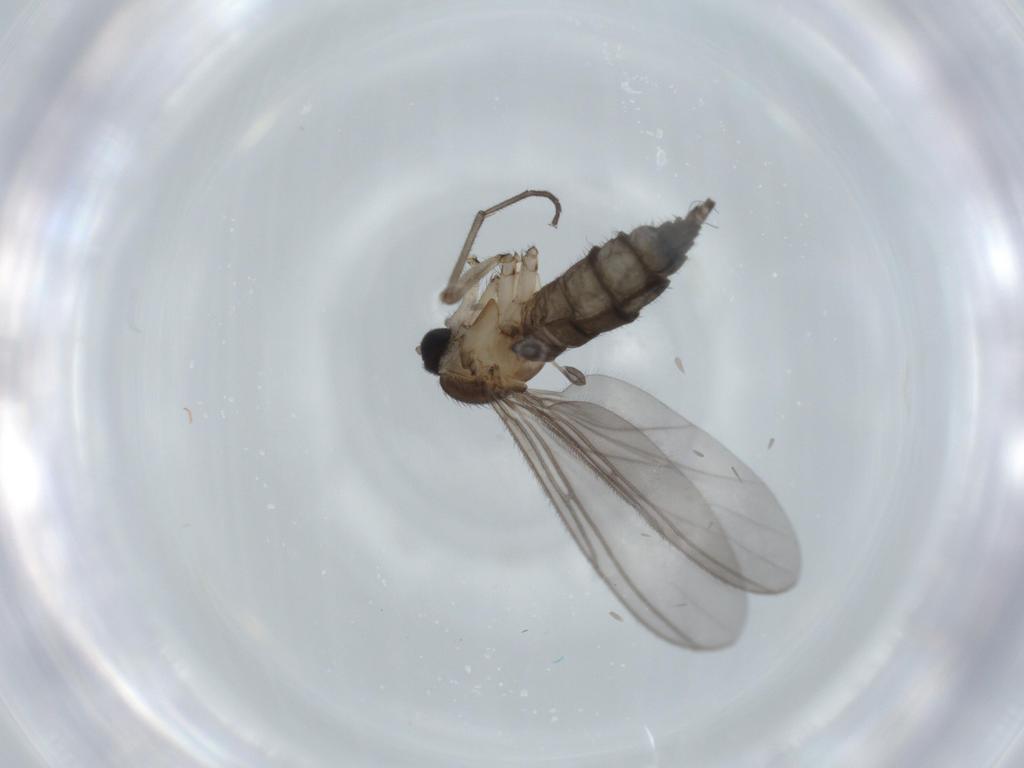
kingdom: Animalia
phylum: Arthropoda
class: Insecta
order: Diptera
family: Sciaridae
